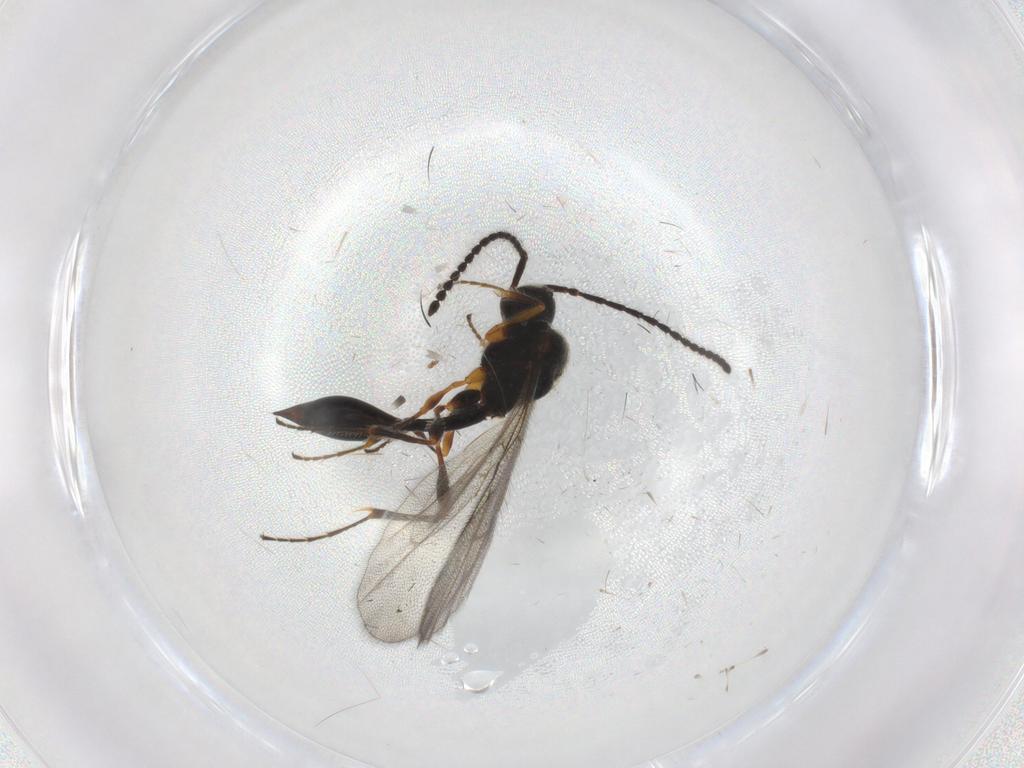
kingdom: Animalia
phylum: Arthropoda
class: Insecta
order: Hymenoptera
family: Diapriidae
